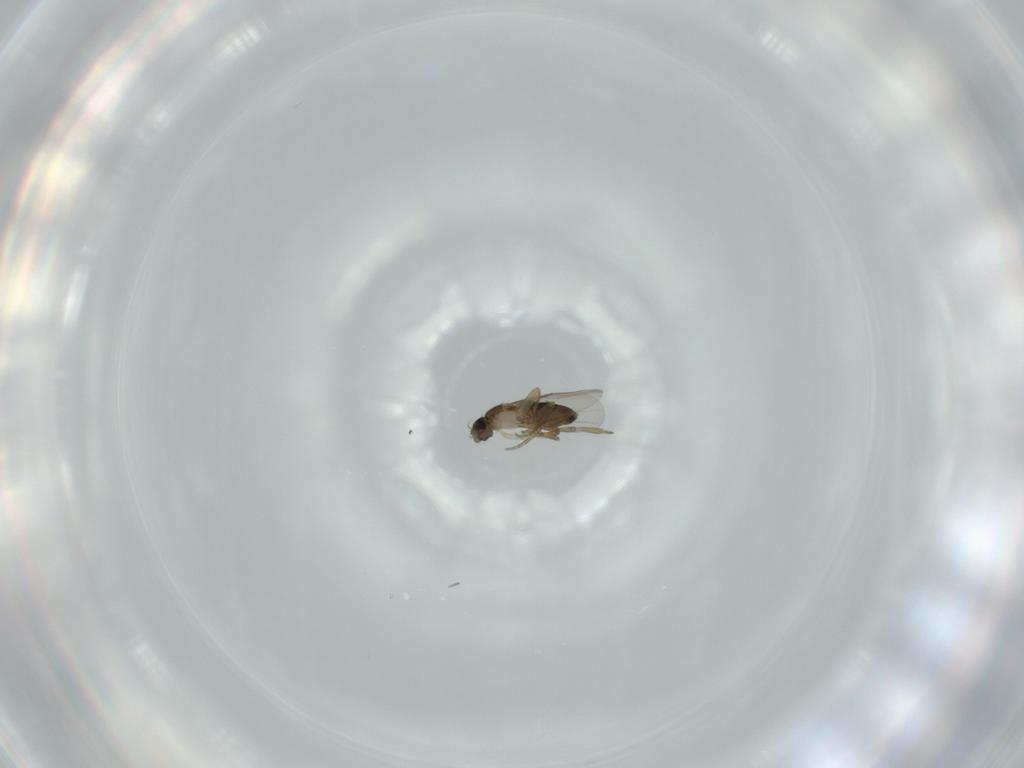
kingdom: Animalia
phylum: Arthropoda
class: Insecta
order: Diptera
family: Phoridae
